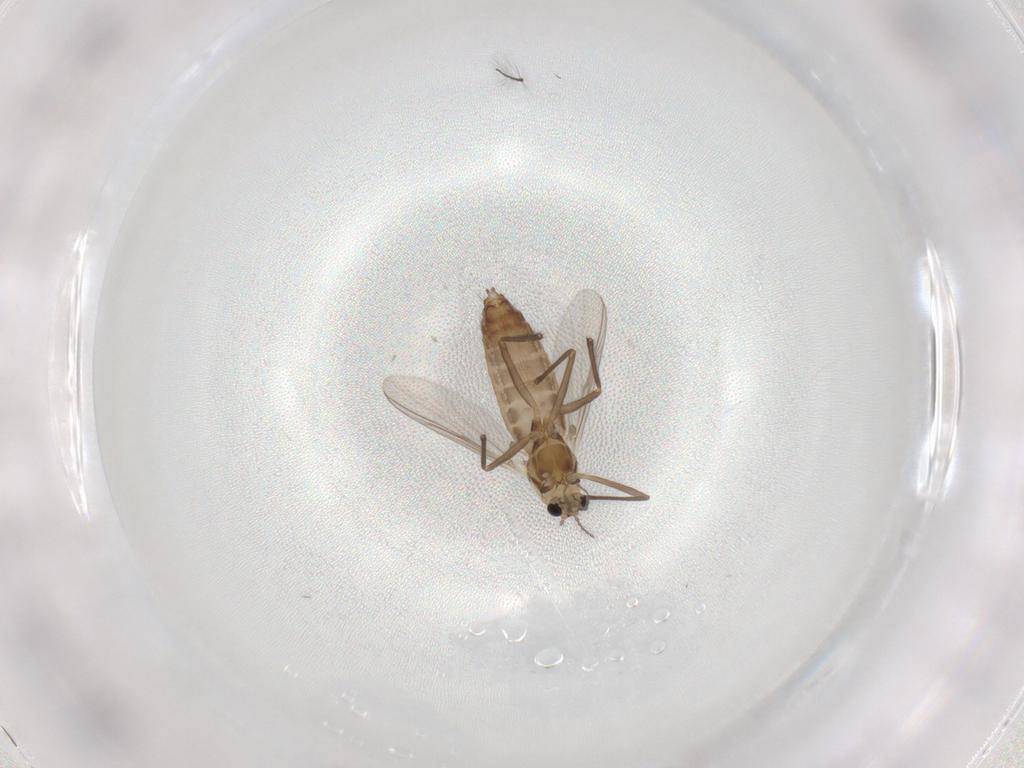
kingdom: Animalia
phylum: Arthropoda
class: Insecta
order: Diptera
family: Chironomidae
